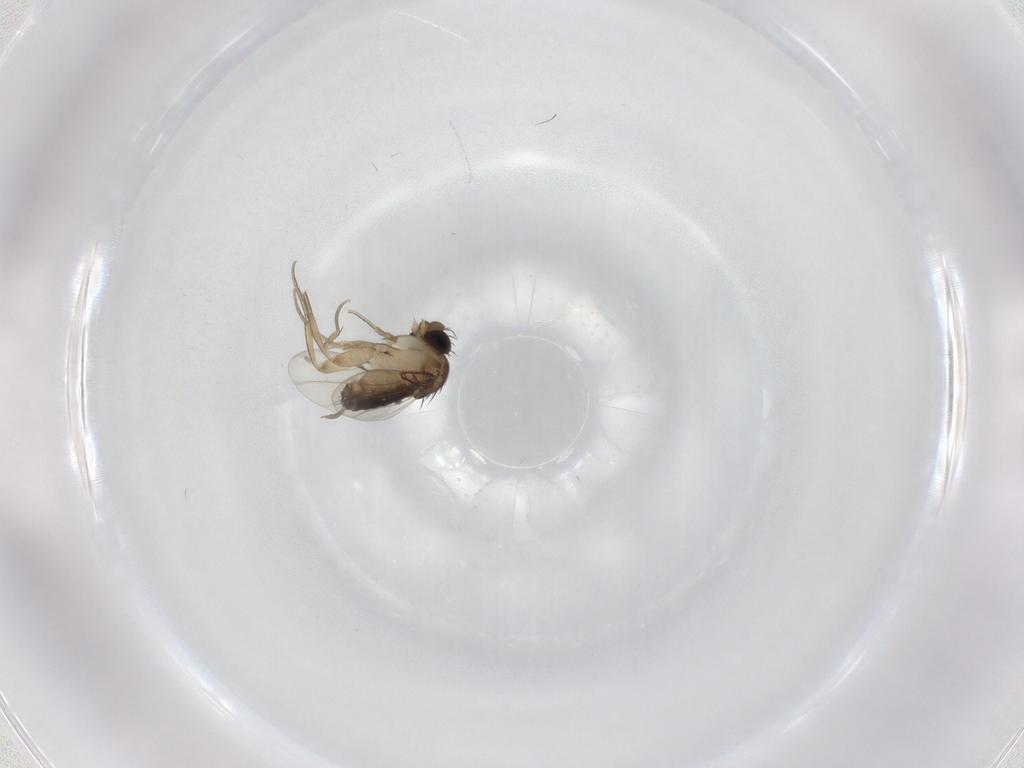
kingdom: Animalia
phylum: Arthropoda
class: Insecta
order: Diptera
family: Cecidomyiidae
